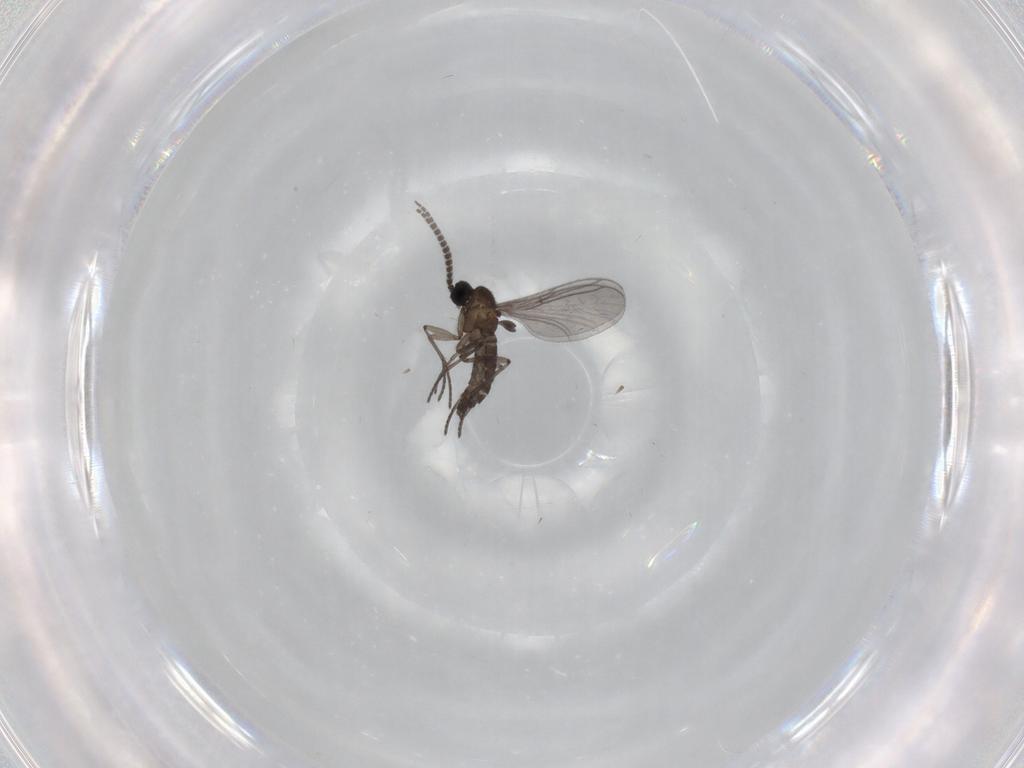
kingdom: Animalia
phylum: Arthropoda
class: Insecta
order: Diptera
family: Sciaridae
